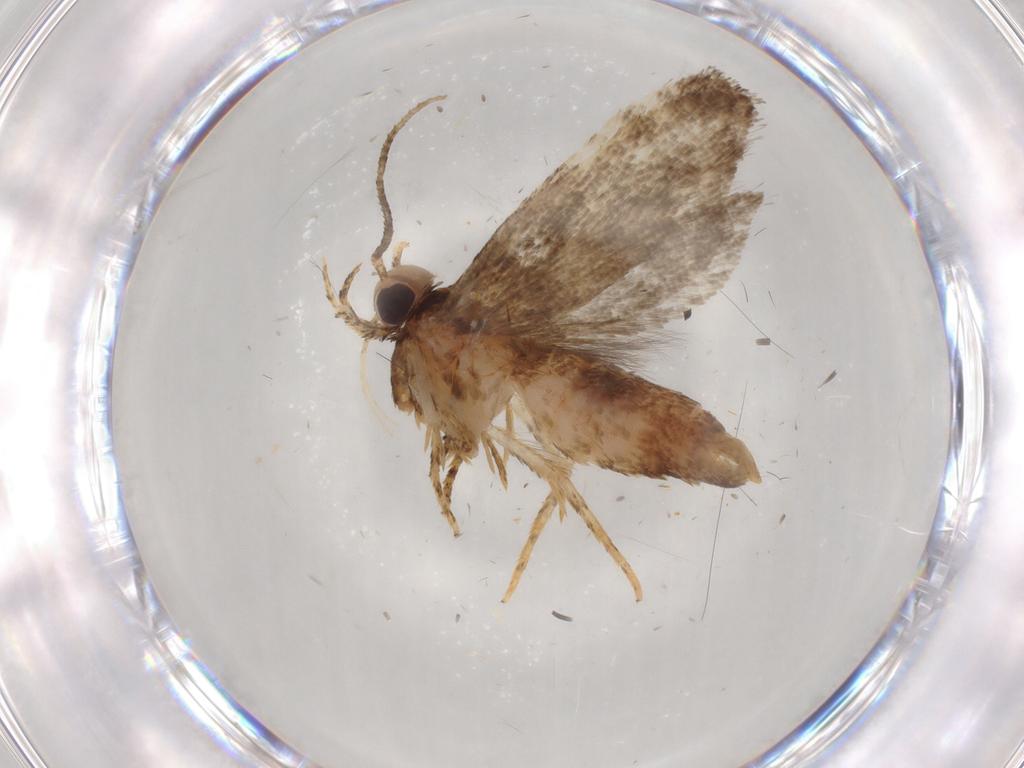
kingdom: Animalia
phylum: Arthropoda
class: Insecta
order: Lepidoptera
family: Gelechiidae
